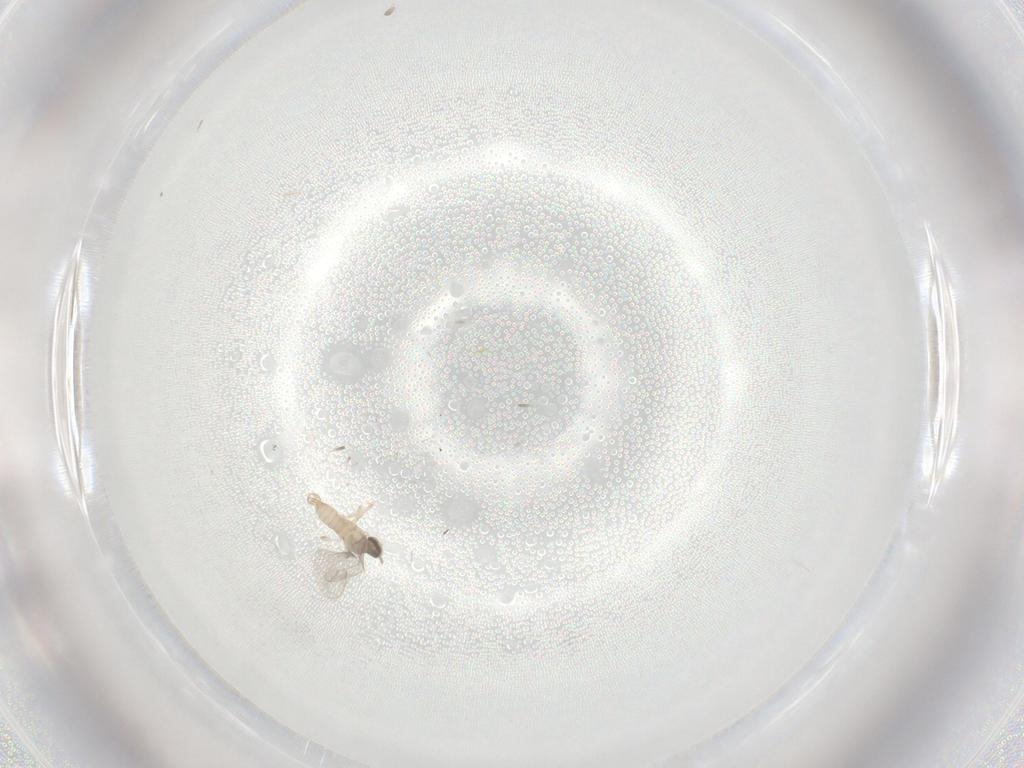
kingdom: Animalia
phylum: Arthropoda
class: Insecta
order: Diptera
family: Cecidomyiidae
